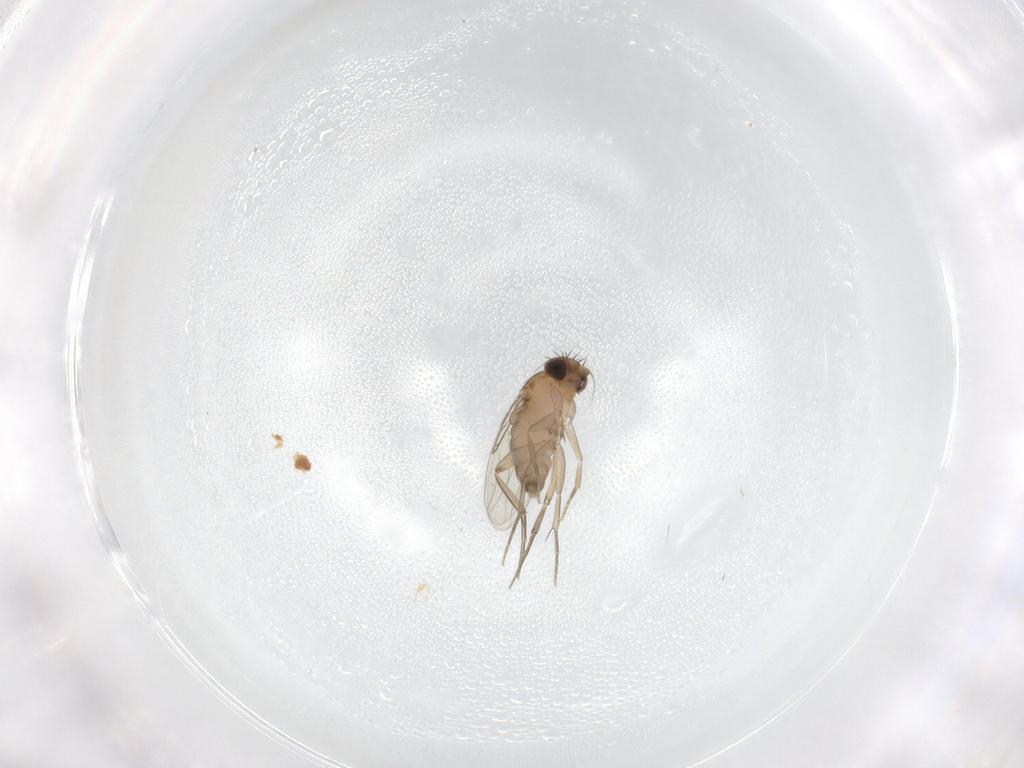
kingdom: Animalia
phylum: Arthropoda
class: Insecta
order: Diptera
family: Phoridae
